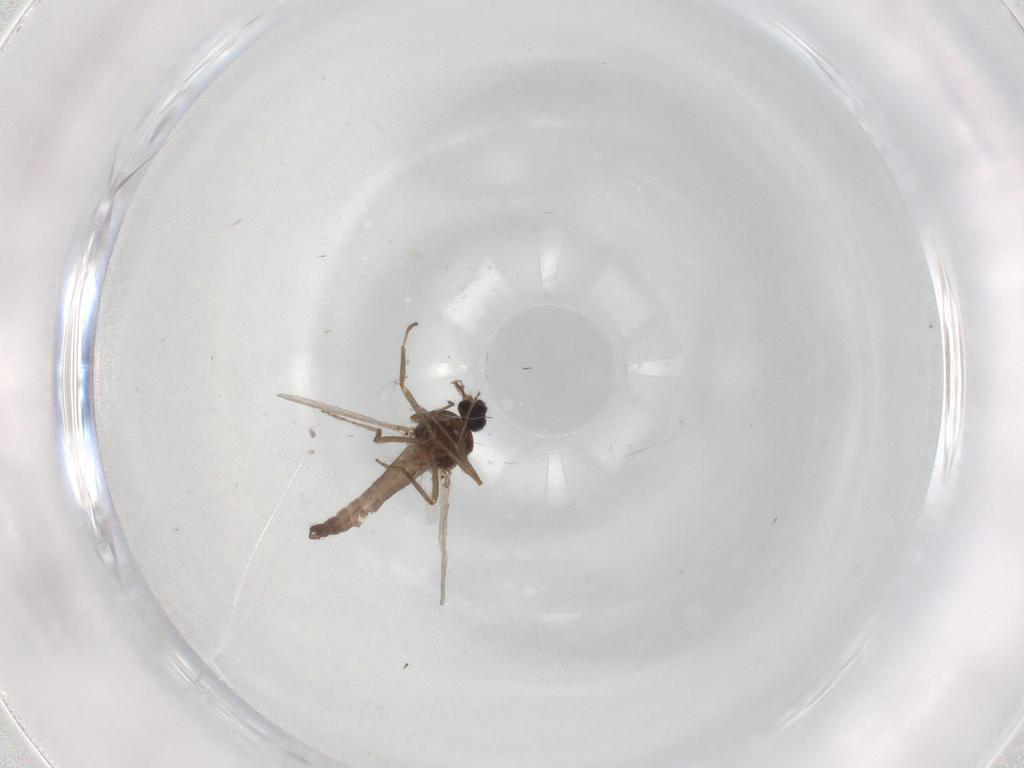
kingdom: Animalia
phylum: Arthropoda
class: Insecta
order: Diptera
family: Ceratopogonidae
